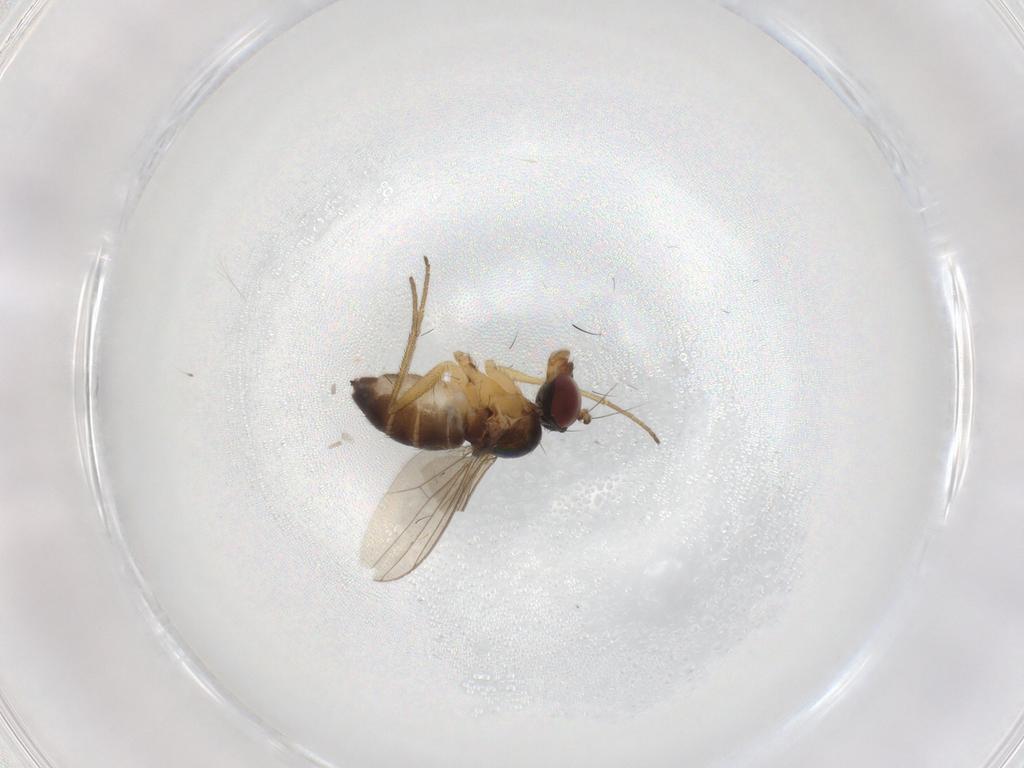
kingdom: Animalia
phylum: Arthropoda
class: Insecta
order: Diptera
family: Dolichopodidae
